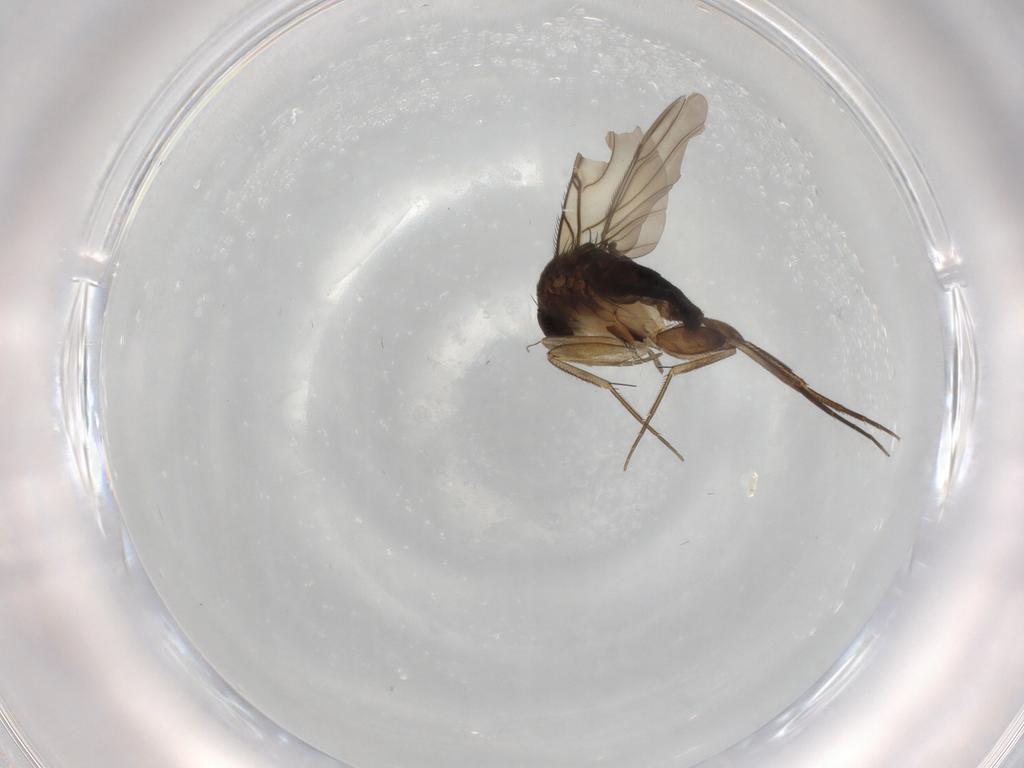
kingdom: Animalia
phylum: Arthropoda
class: Insecta
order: Diptera
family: Phoridae
